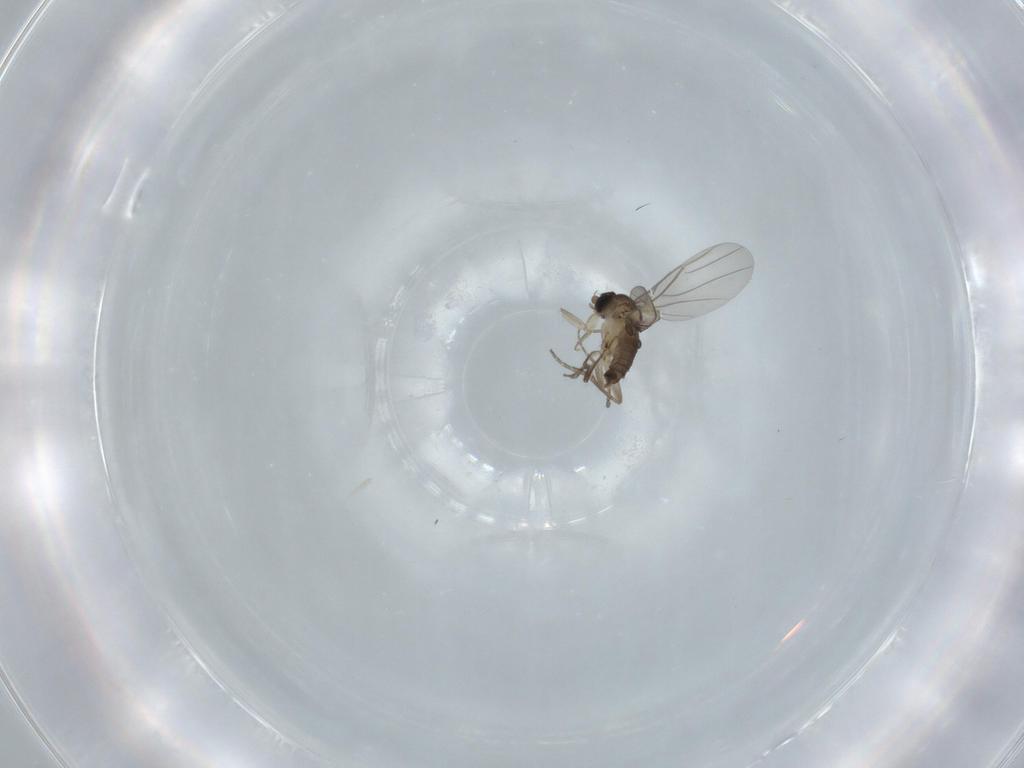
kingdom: Animalia
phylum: Arthropoda
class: Insecta
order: Diptera
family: Phoridae
